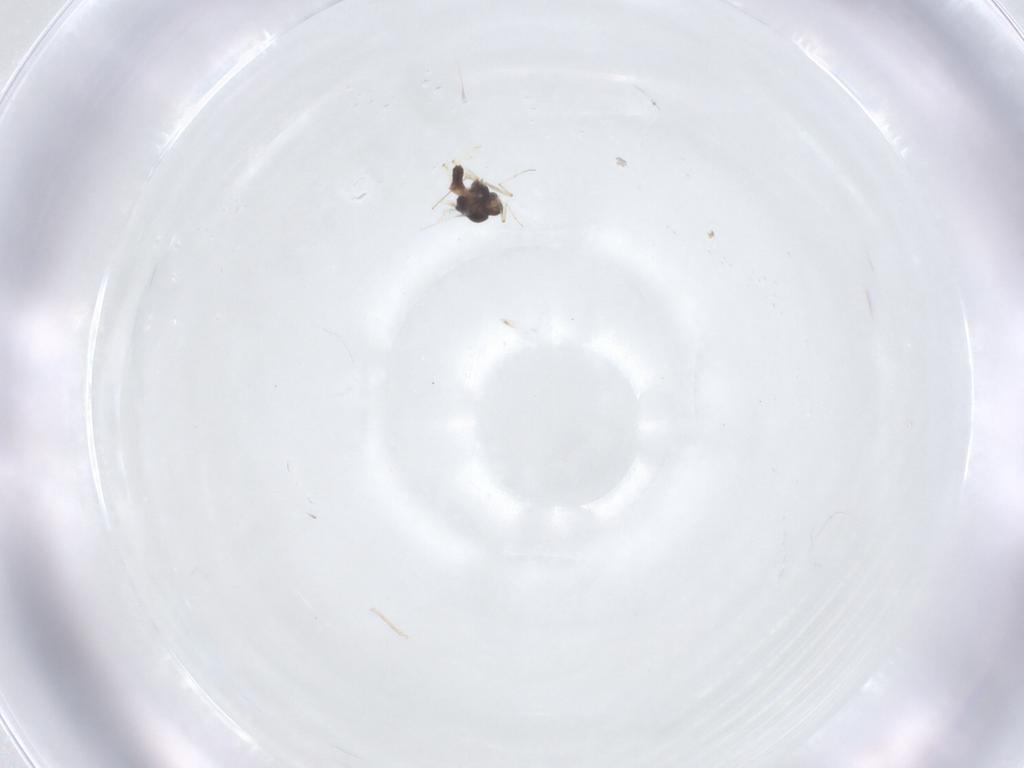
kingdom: Animalia
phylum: Arthropoda
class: Insecta
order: Diptera
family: Chironomidae
